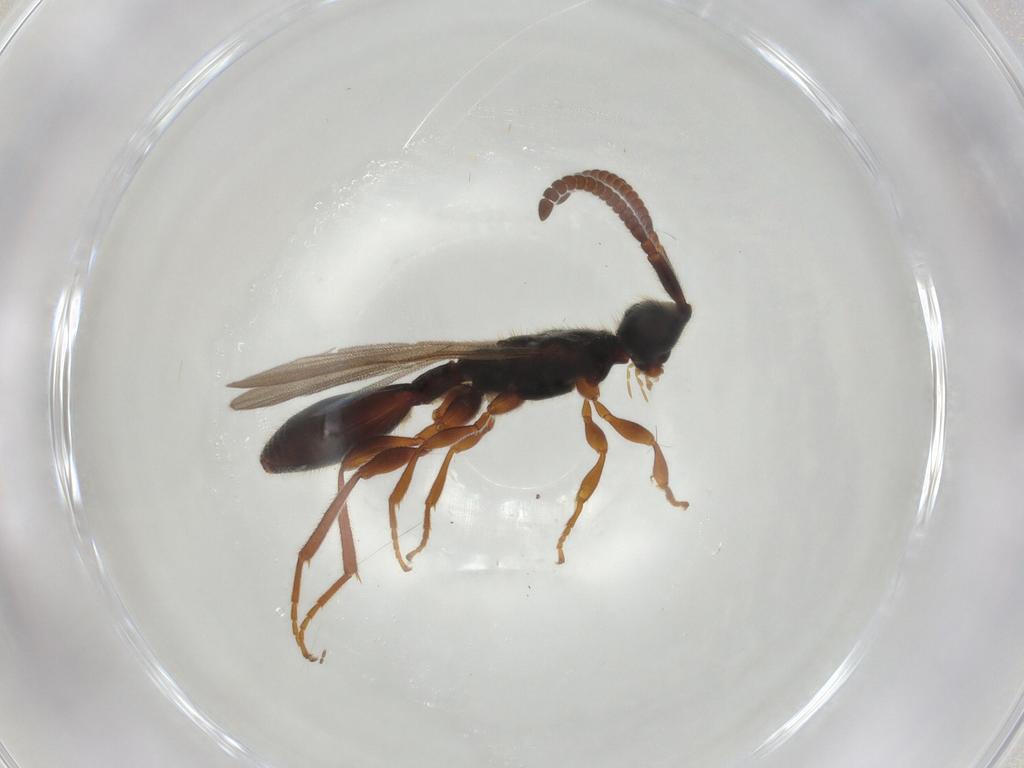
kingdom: Animalia
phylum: Arthropoda
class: Insecta
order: Hymenoptera
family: Diapriidae
